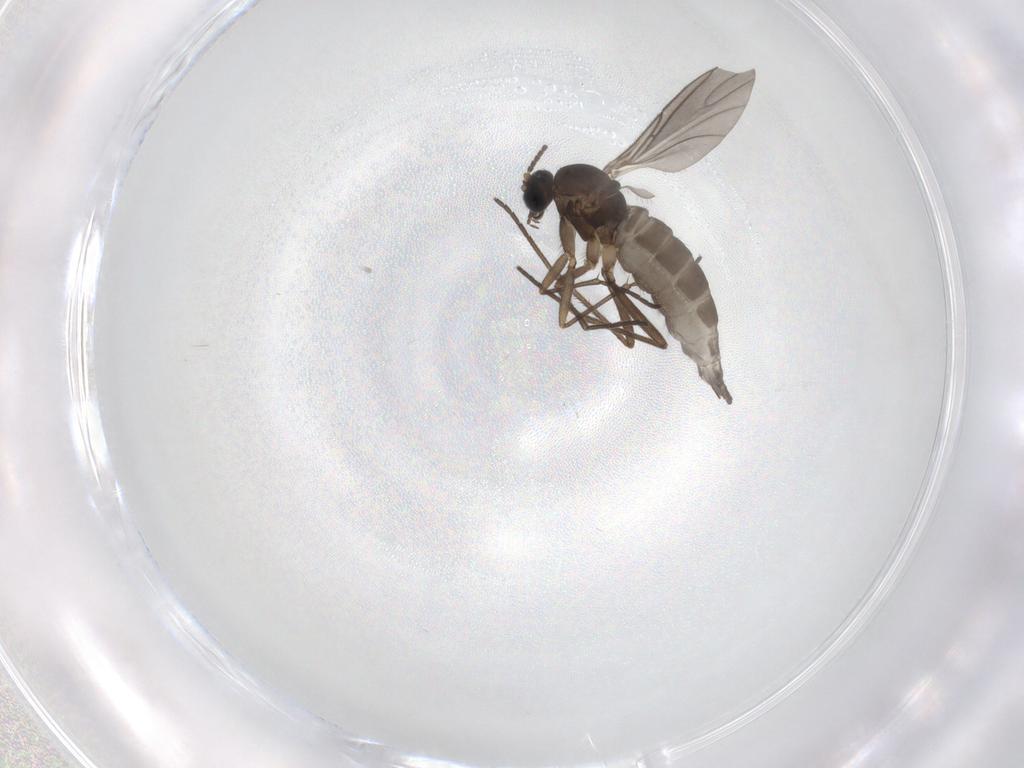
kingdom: Animalia
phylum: Arthropoda
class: Insecta
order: Diptera
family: Sciaridae
